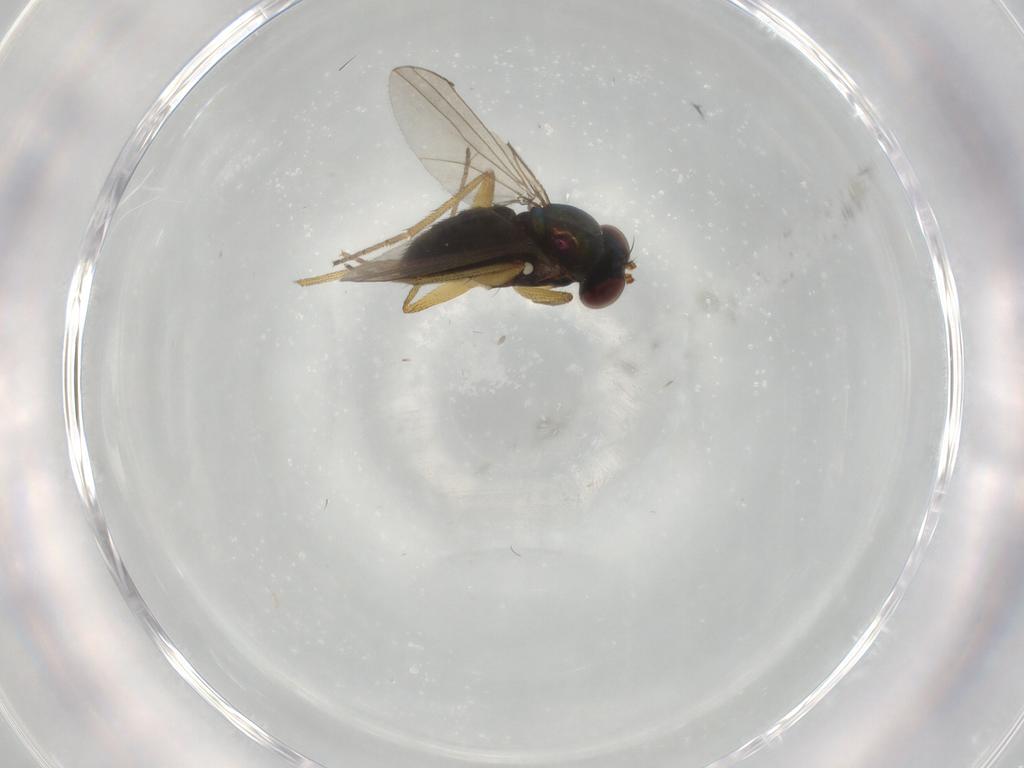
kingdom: Animalia
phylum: Arthropoda
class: Insecta
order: Diptera
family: Dolichopodidae
